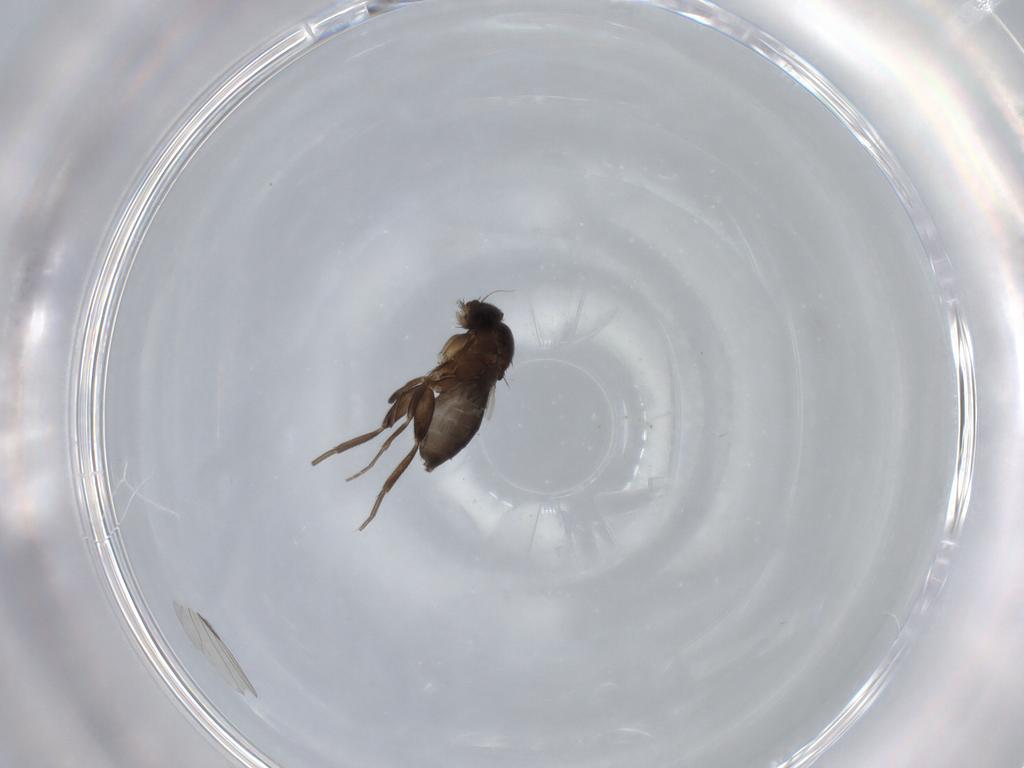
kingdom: Animalia
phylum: Arthropoda
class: Insecta
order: Diptera
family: Phoridae
